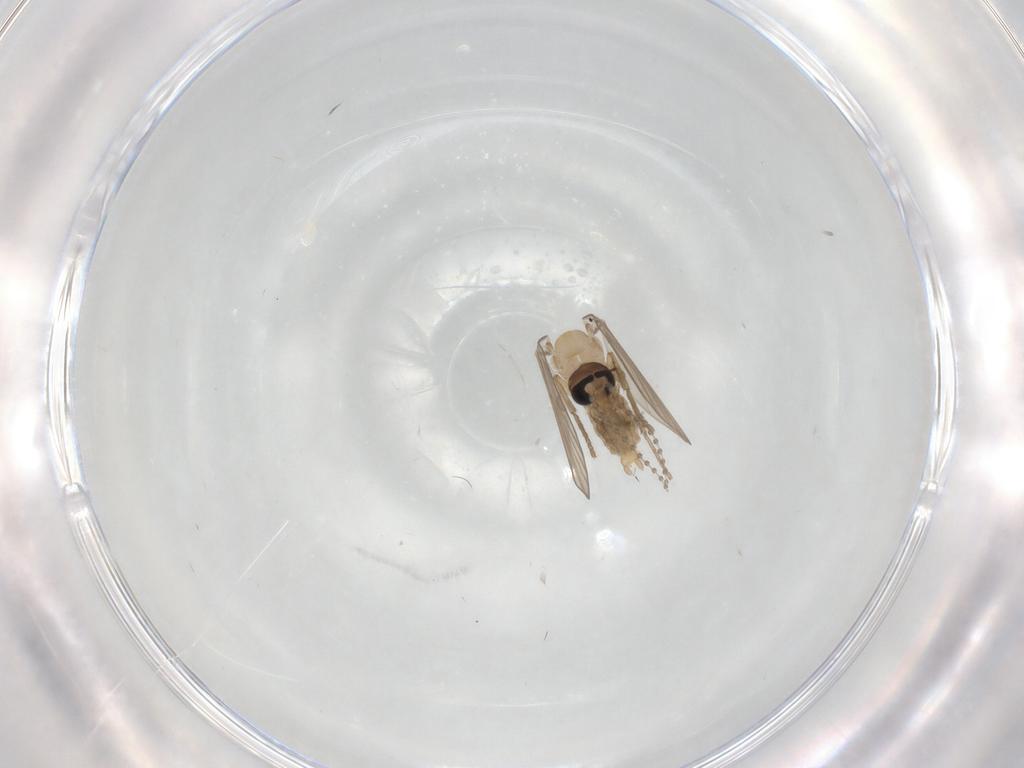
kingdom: Animalia
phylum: Arthropoda
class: Insecta
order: Diptera
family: Psychodidae
